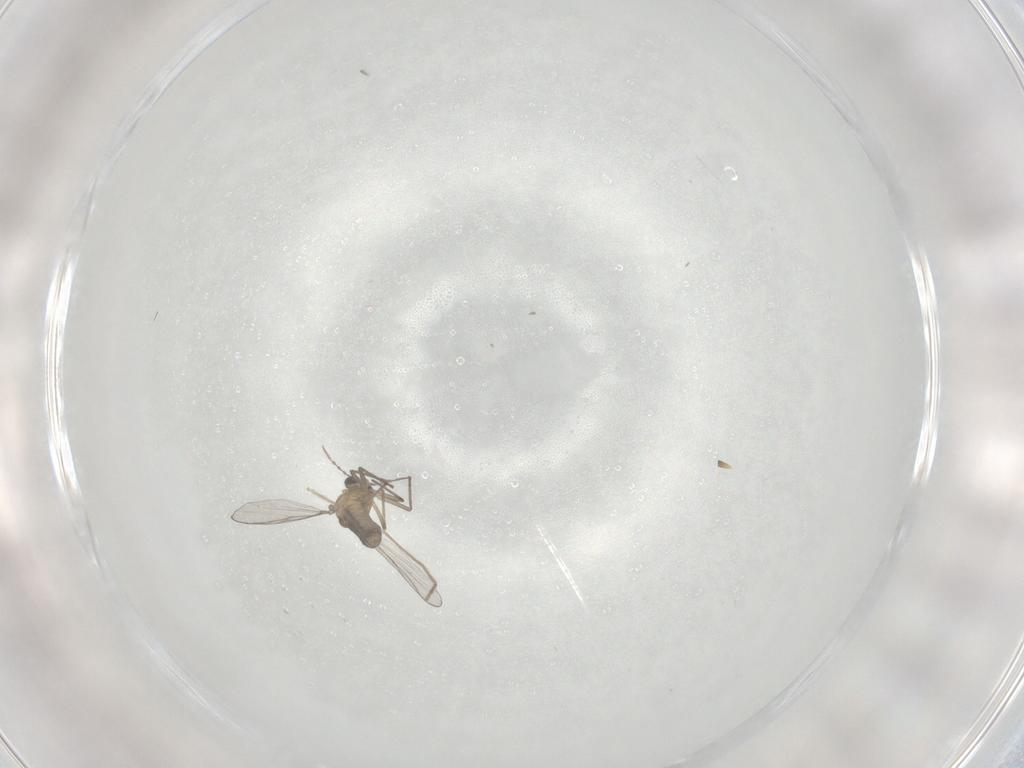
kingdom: Animalia
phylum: Arthropoda
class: Insecta
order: Diptera
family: Chironomidae
